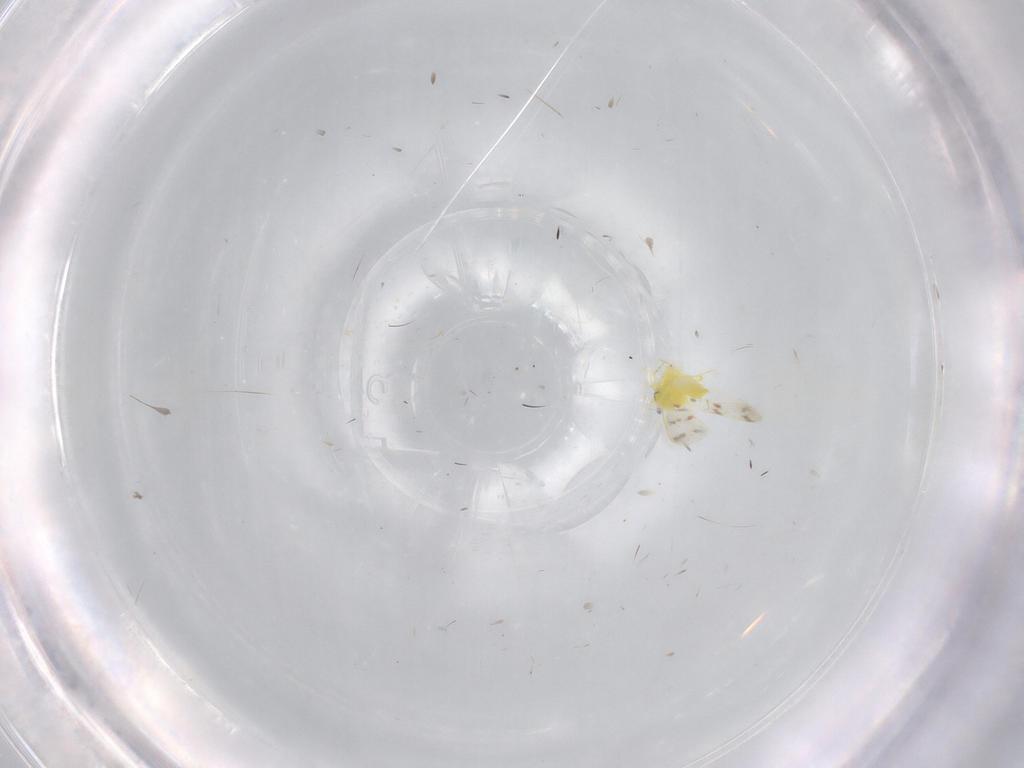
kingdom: Animalia
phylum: Arthropoda
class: Insecta
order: Hemiptera
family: Aleyrodidae
